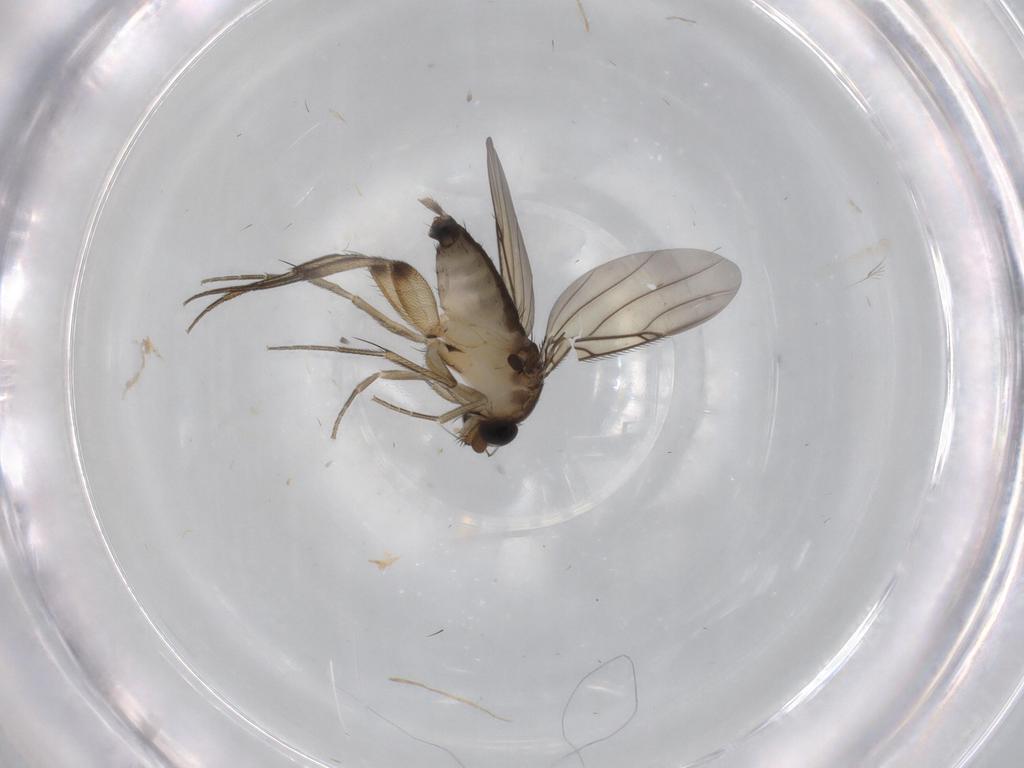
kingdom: Animalia
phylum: Arthropoda
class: Insecta
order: Diptera
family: Phoridae
